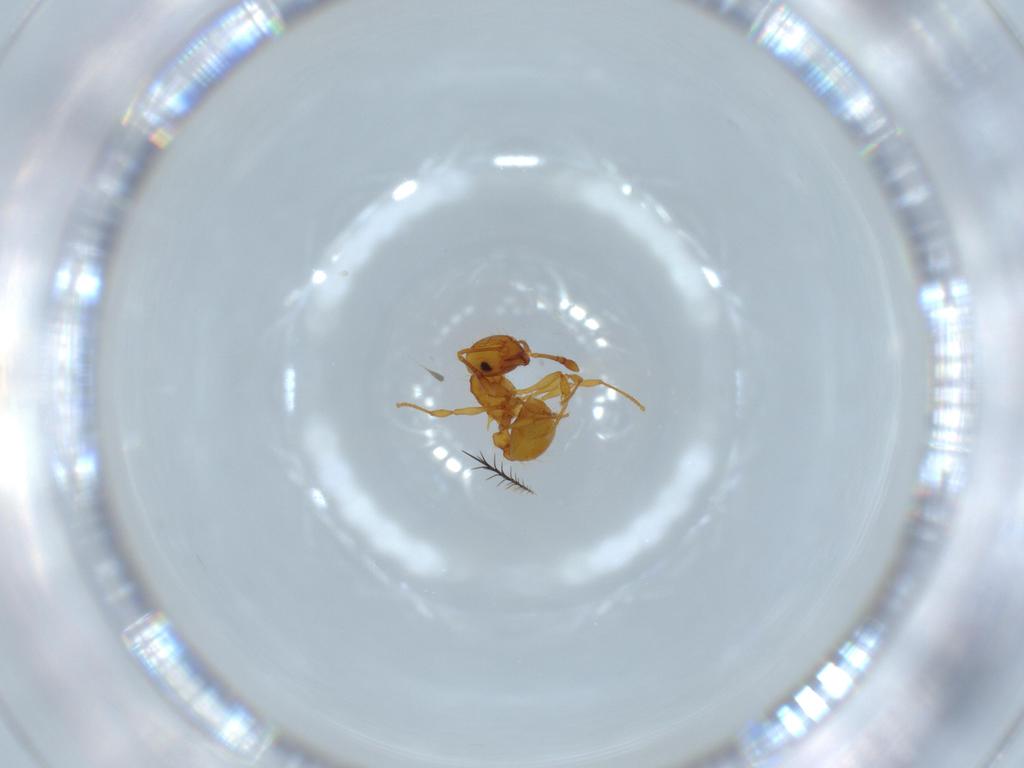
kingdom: Animalia
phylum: Arthropoda
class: Insecta
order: Hymenoptera
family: Formicidae
